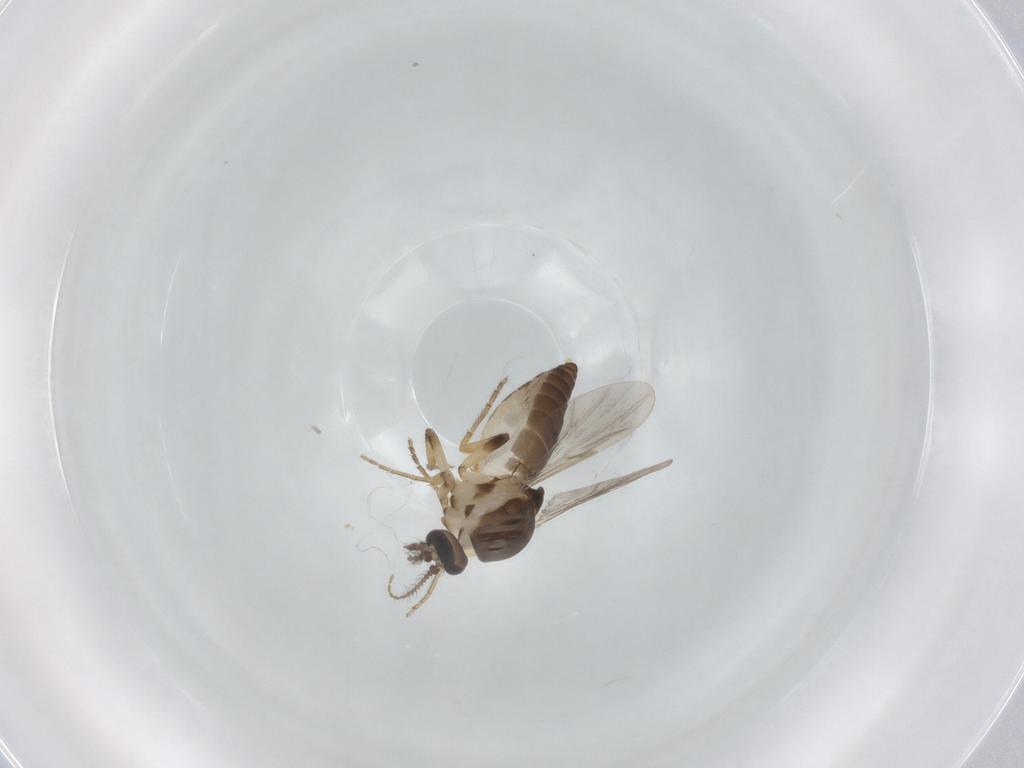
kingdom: Animalia
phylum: Arthropoda
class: Insecta
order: Diptera
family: Ceratopogonidae
